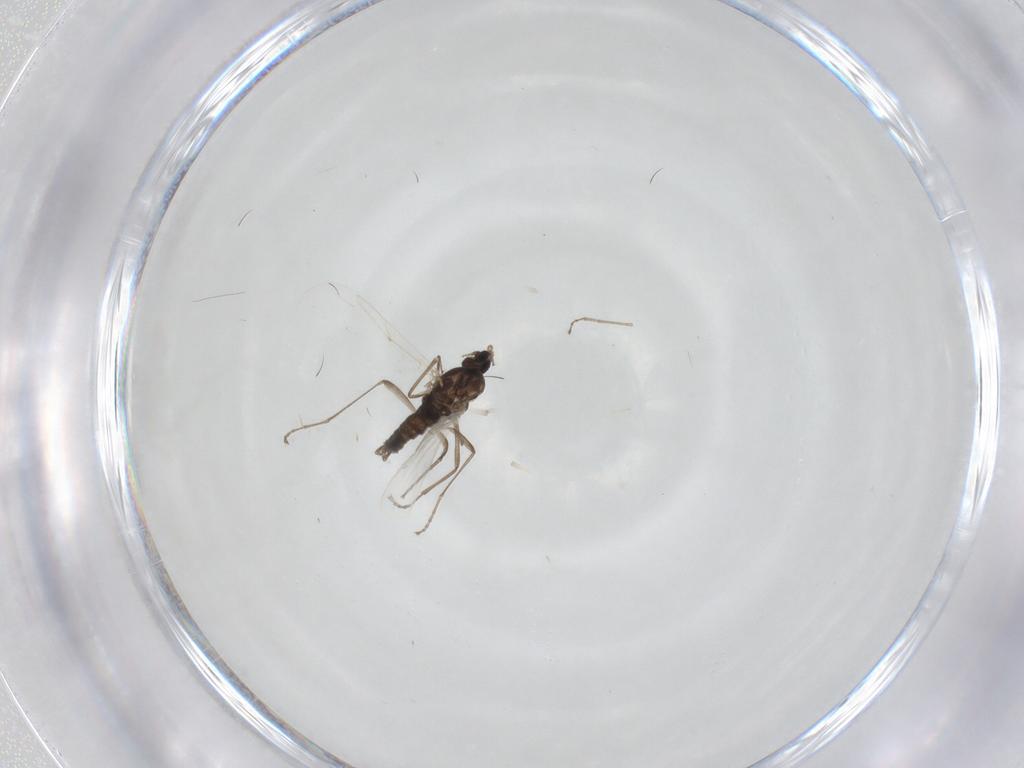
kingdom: Animalia
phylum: Arthropoda
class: Insecta
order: Diptera
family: Cecidomyiidae
